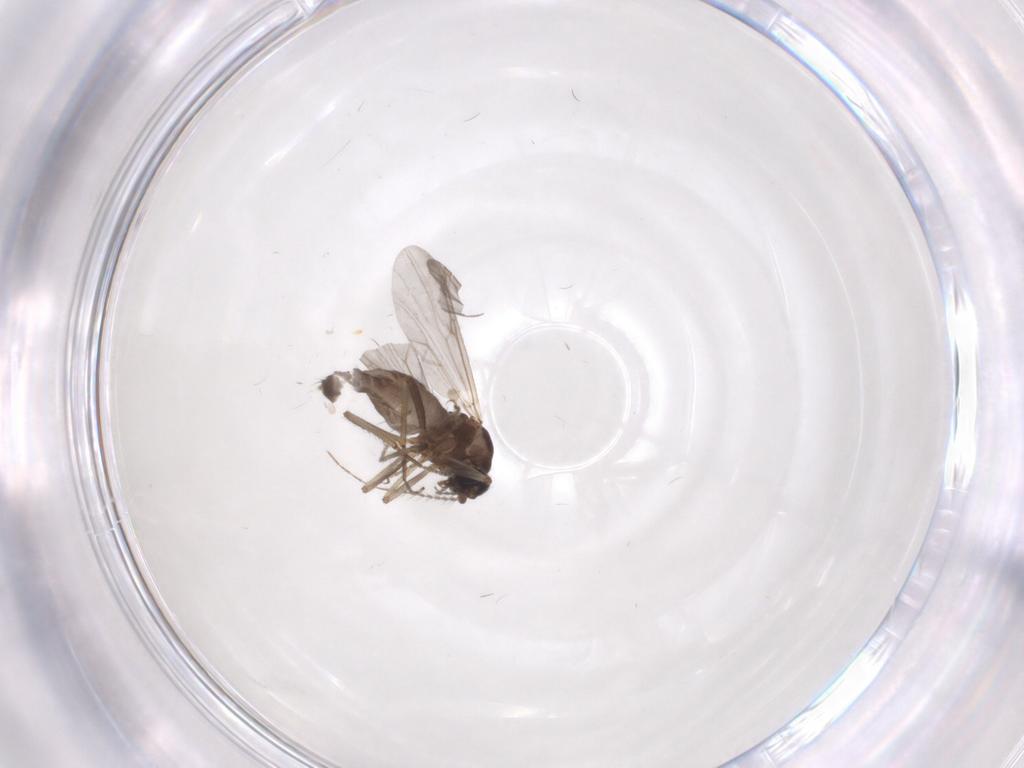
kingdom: Animalia
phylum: Arthropoda
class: Insecta
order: Diptera
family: Ceratopogonidae
